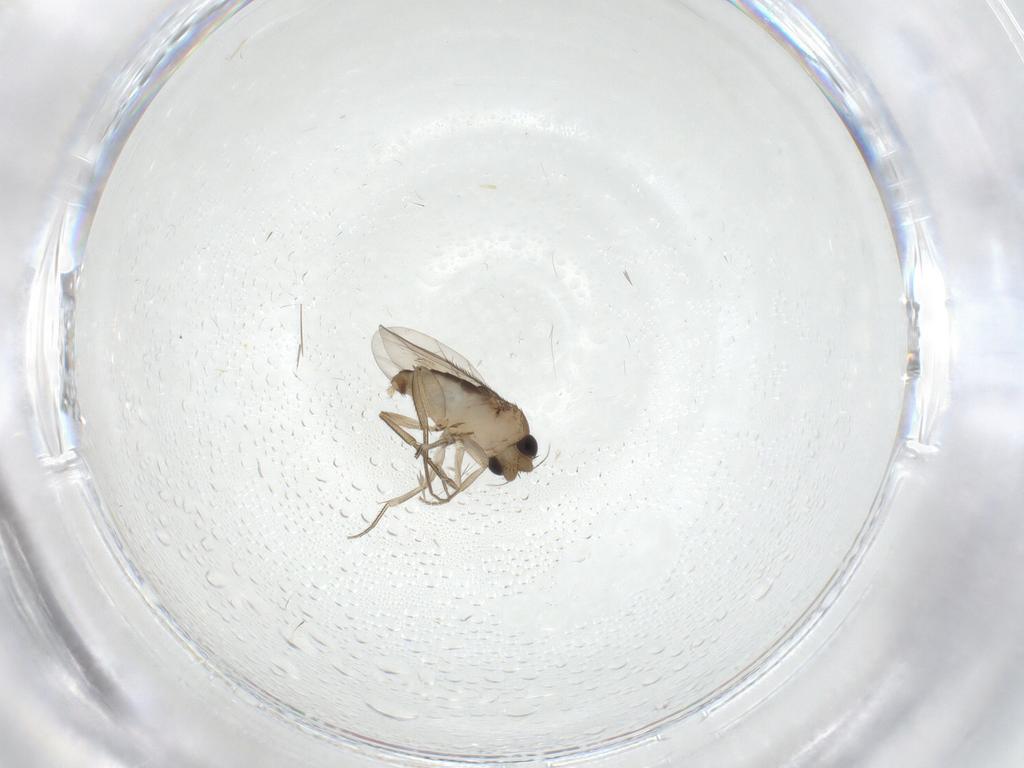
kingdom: Animalia
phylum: Arthropoda
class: Insecta
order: Diptera
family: Phoridae
